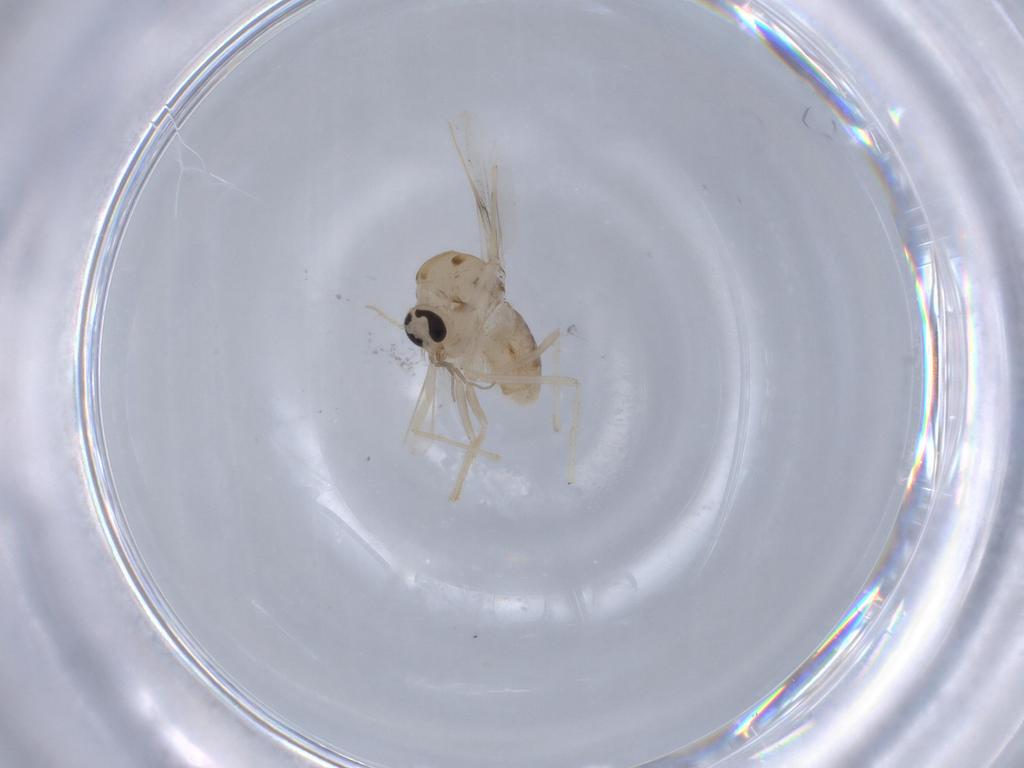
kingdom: Animalia
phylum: Arthropoda
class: Insecta
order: Diptera
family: Chironomidae
